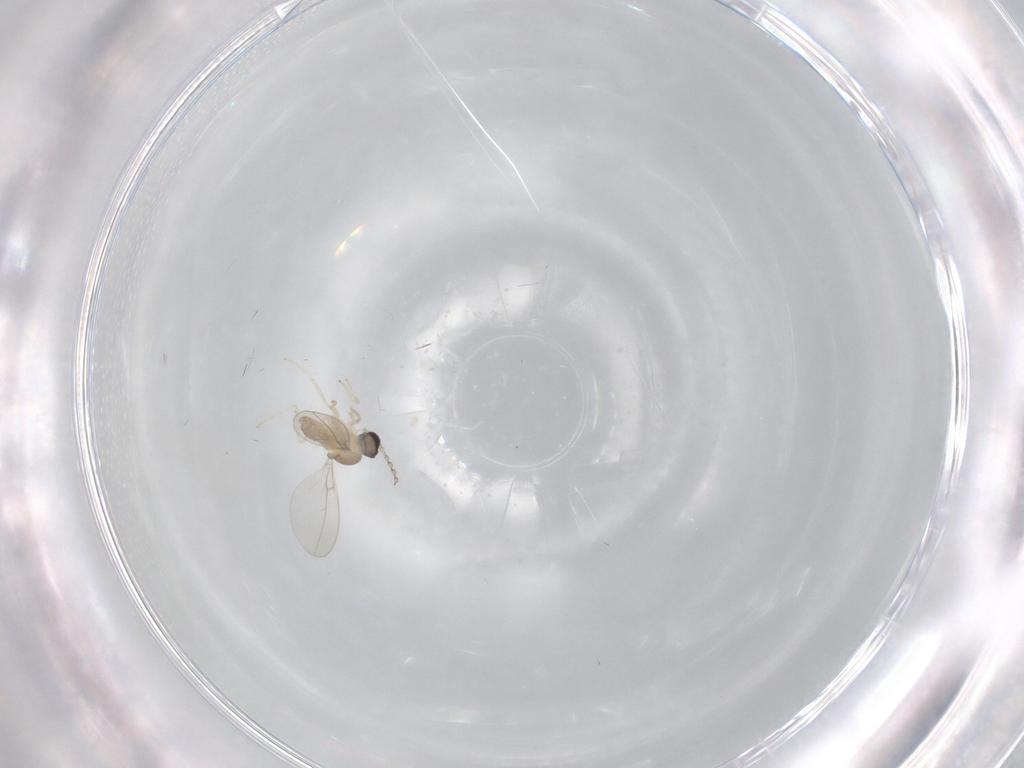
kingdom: Animalia
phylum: Arthropoda
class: Insecta
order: Diptera
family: Cecidomyiidae
